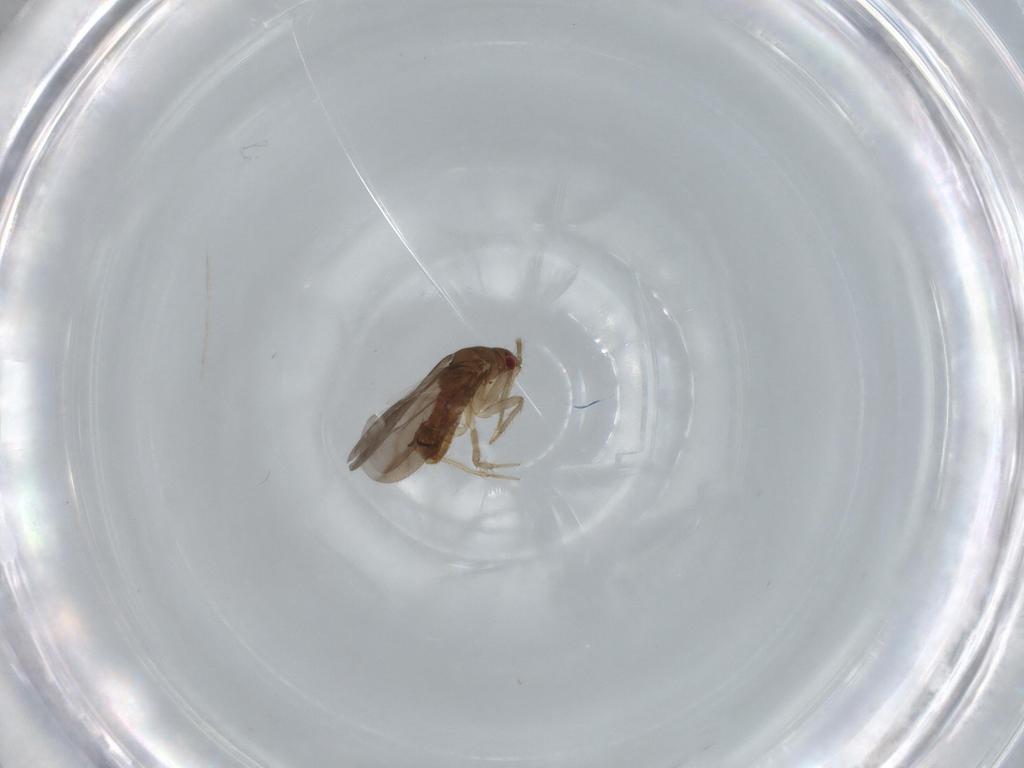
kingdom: Animalia
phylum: Arthropoda
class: Insecta
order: Hemiptera
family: Ceratocombidae
